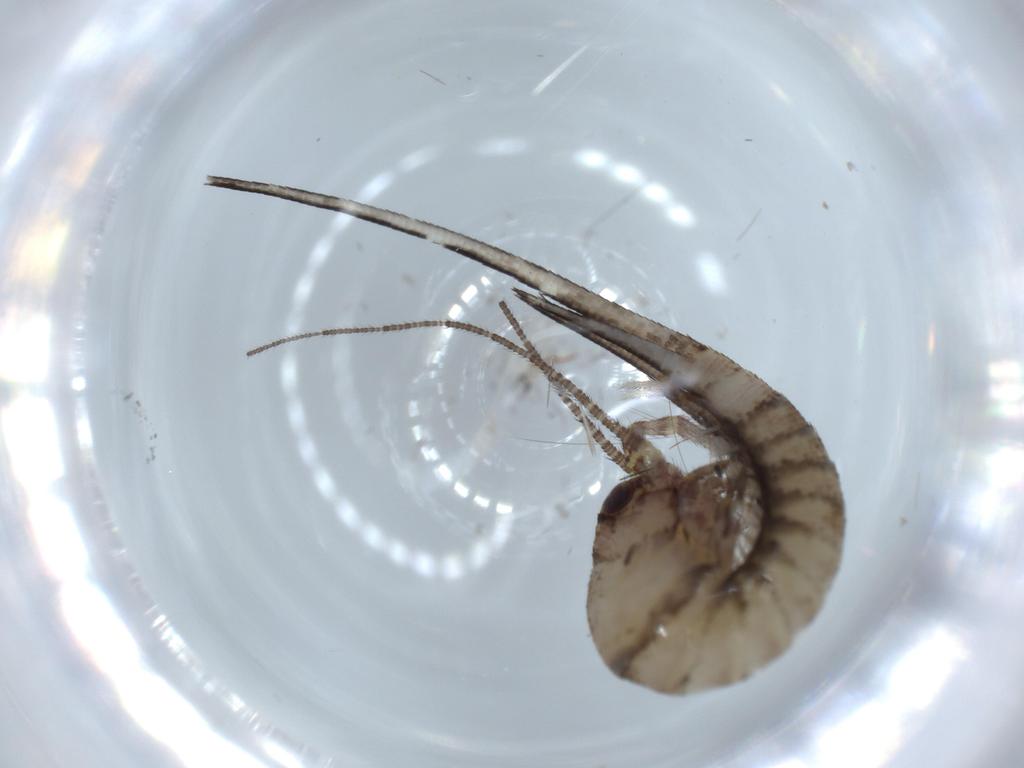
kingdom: Animalia
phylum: Arthropoda
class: Insecta
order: Archaeognatha
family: Machilidae
